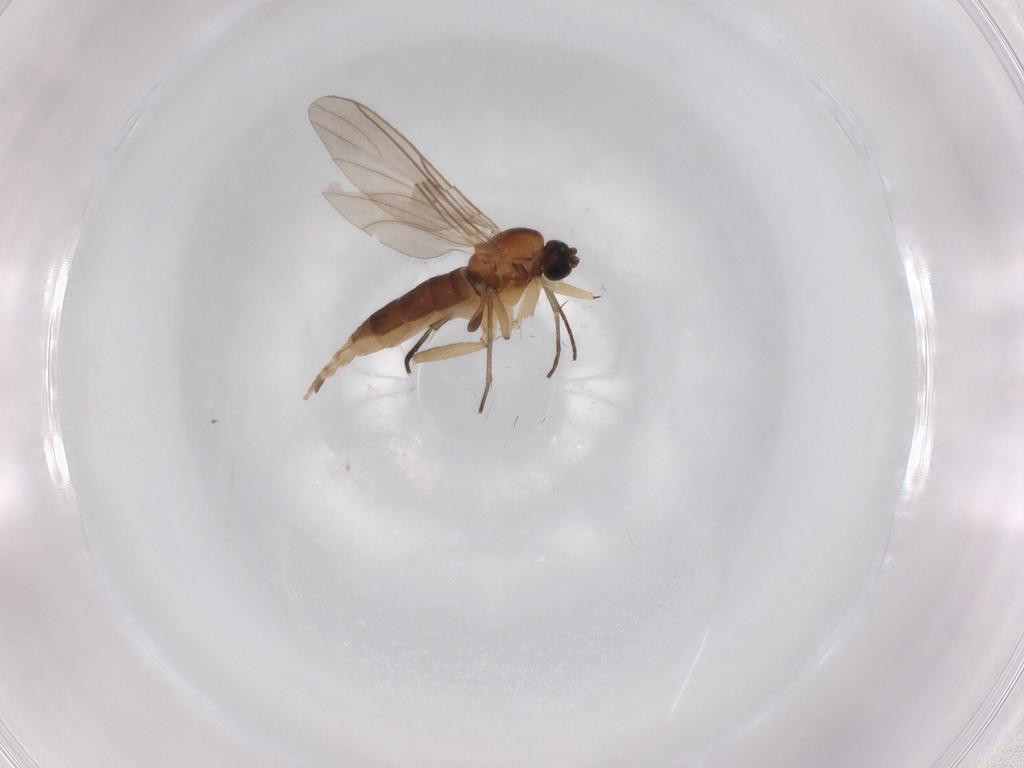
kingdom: Animalia
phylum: Arthropoda
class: Insecta
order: Diptera
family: Sciaridae
